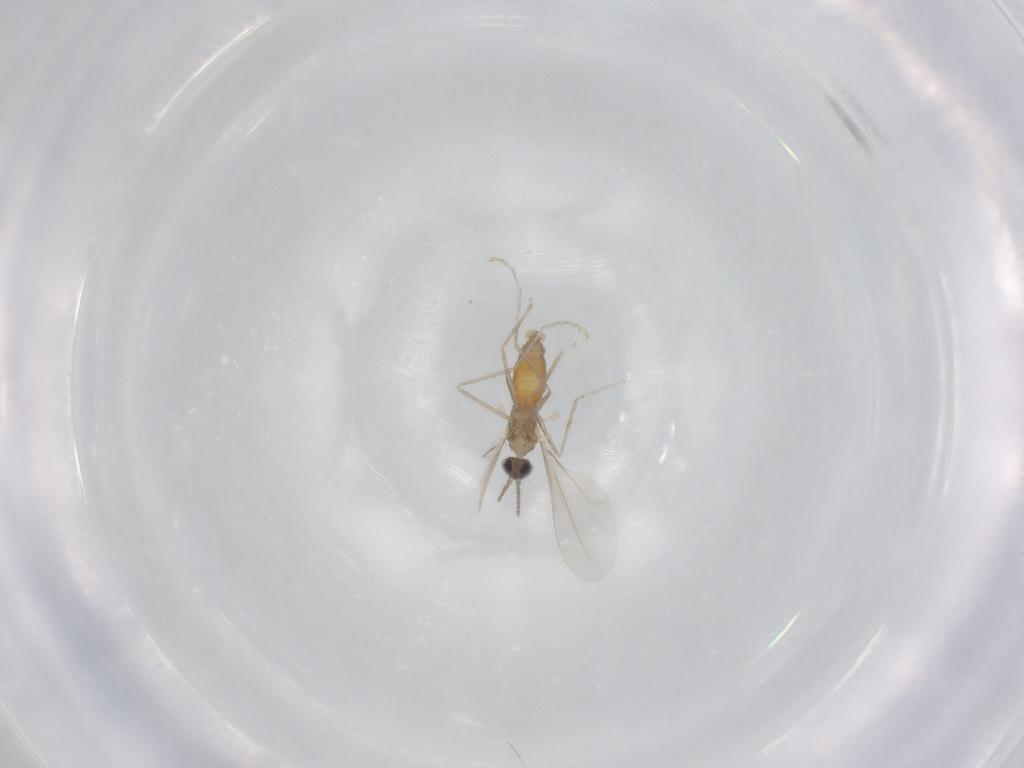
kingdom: Animalia
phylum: Arthropoda
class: Insecta
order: Diptera
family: Cecidomyiidae
